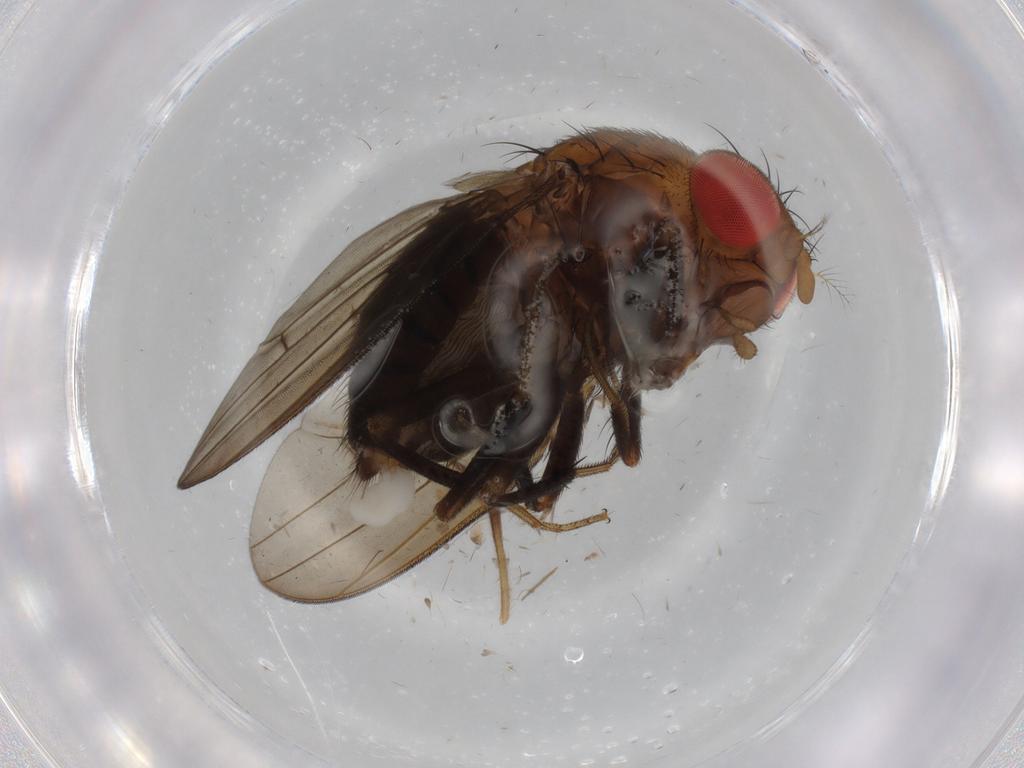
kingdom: Animalia
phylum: Arthropoda
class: Insecta
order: Diptera
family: Drosophilidae
